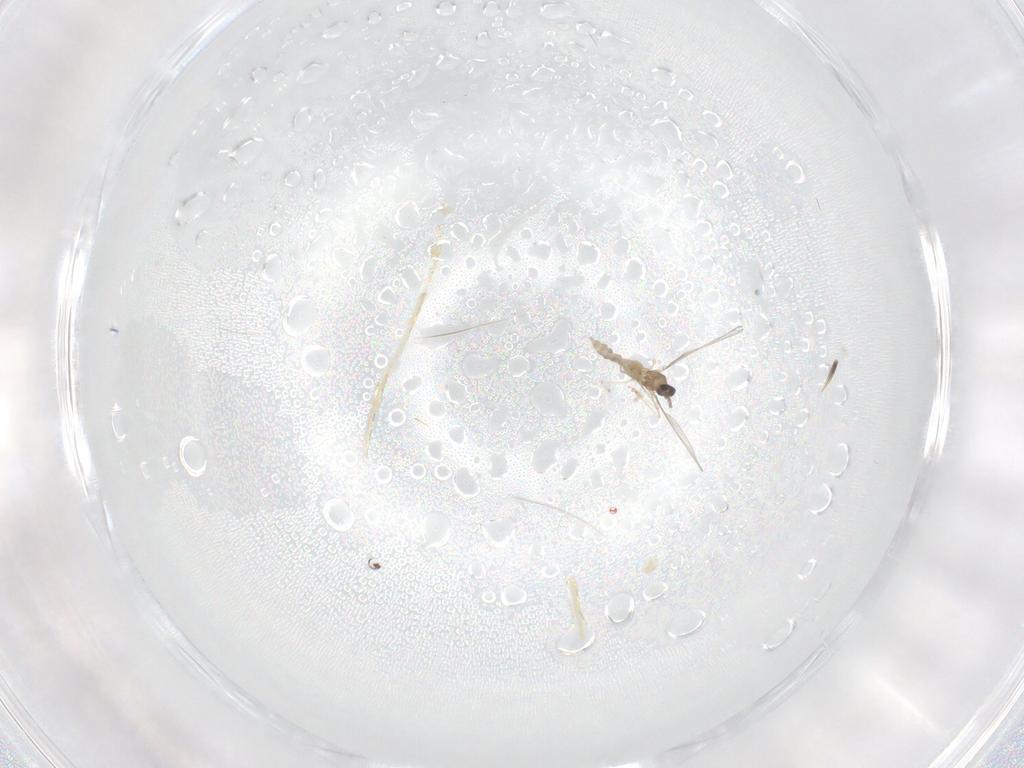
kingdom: Animalia
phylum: Arthropoda
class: Insecta
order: Diptera
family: Cecidomyiidae
